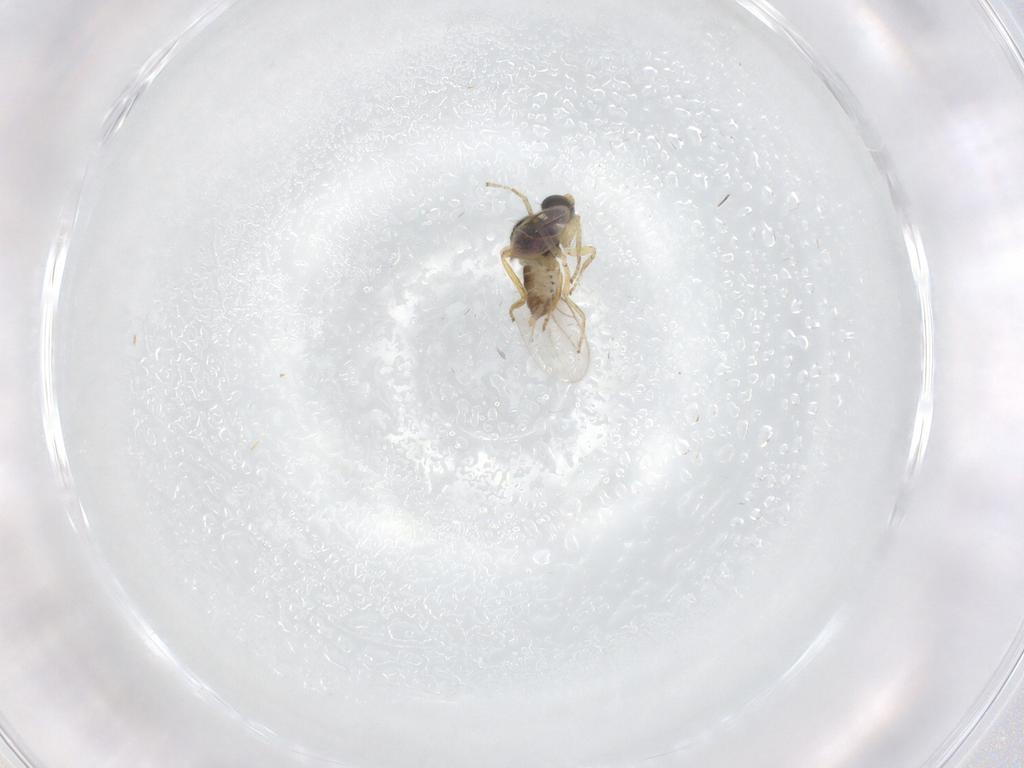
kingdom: Animalia
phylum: Arthropoda
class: Insecta
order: Diptera
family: Hybotidae
